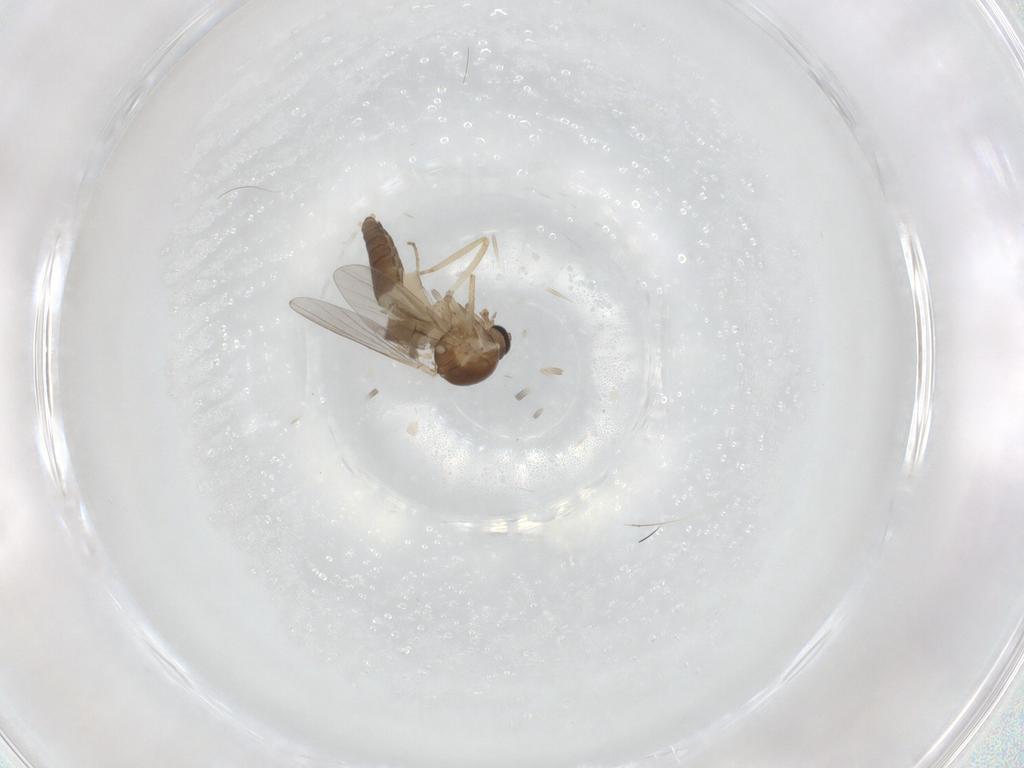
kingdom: Animalia
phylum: Arthropoda
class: Insecta
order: Diptera
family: Ceratopogonidae
